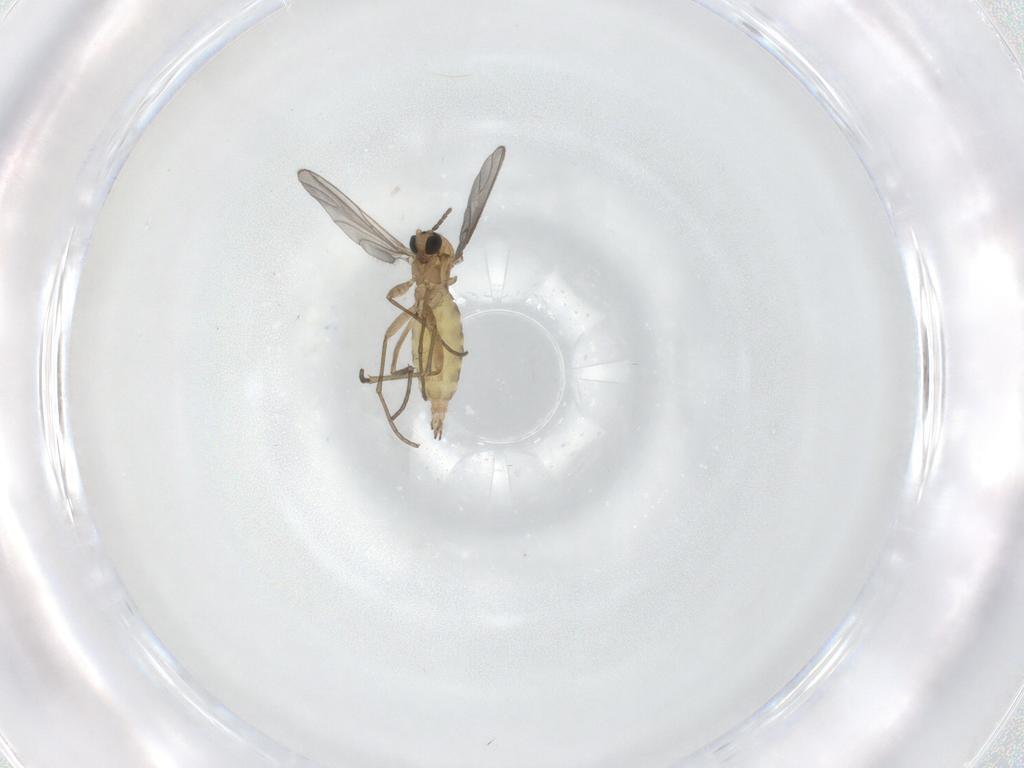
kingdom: Animalia
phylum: Arthropoda
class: Insecta
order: Diptera
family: Sciaridae
